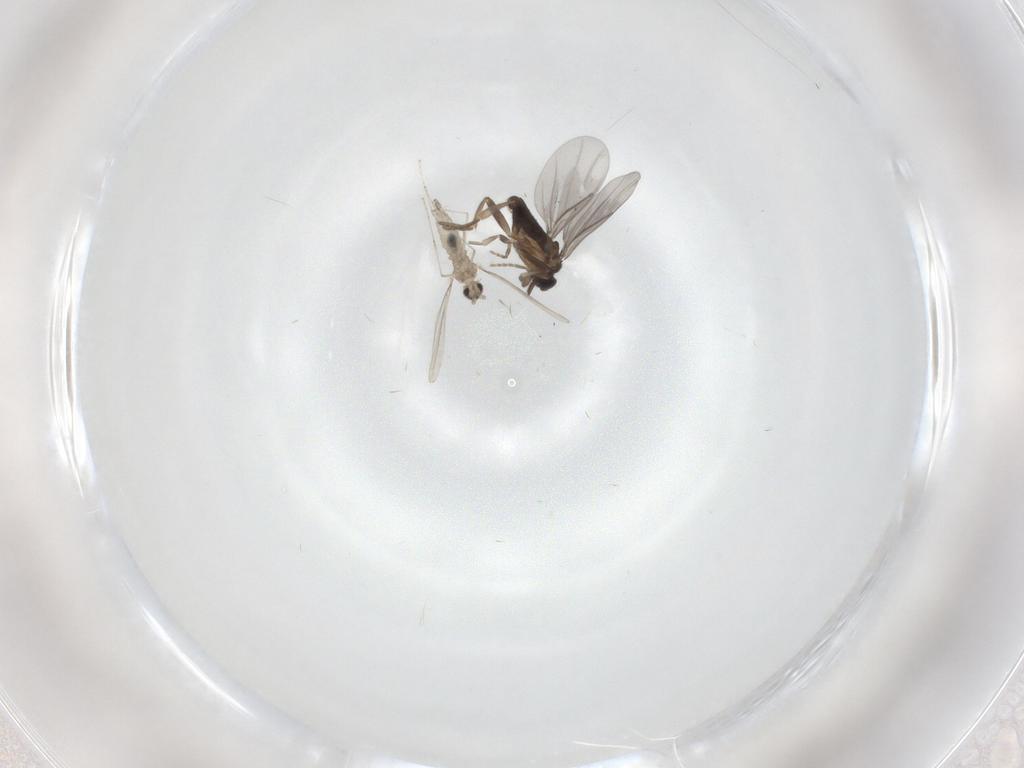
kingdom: Animalia
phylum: Arthropoda
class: Insecta
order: Diptera
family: Cecidomyiidae
